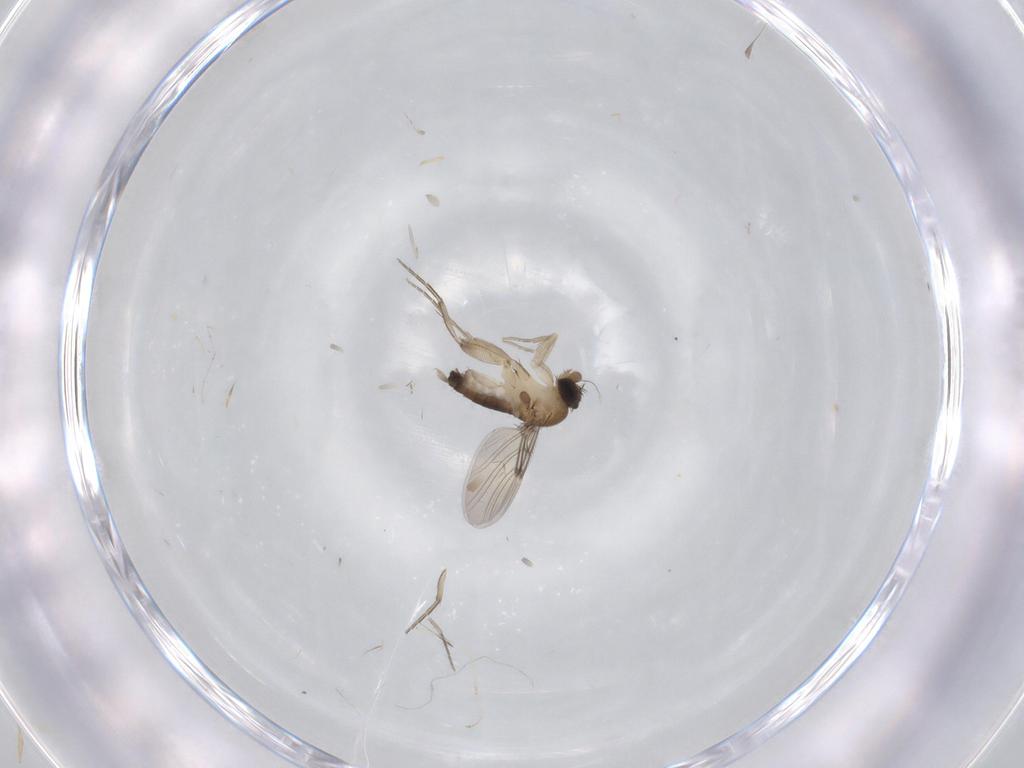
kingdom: Animalia
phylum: Arthropoda
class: Insecta
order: Diptera
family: Phoridae
